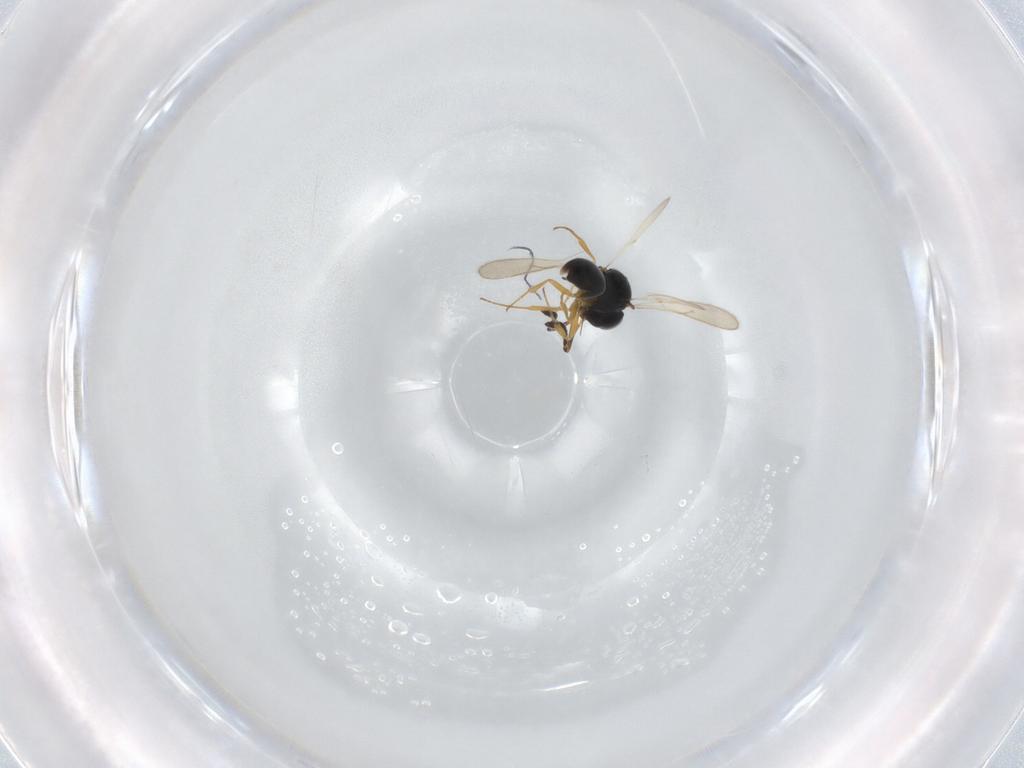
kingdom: Animalia
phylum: Arthropoda
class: Insecta
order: Hymenoptera
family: Scelionidae
